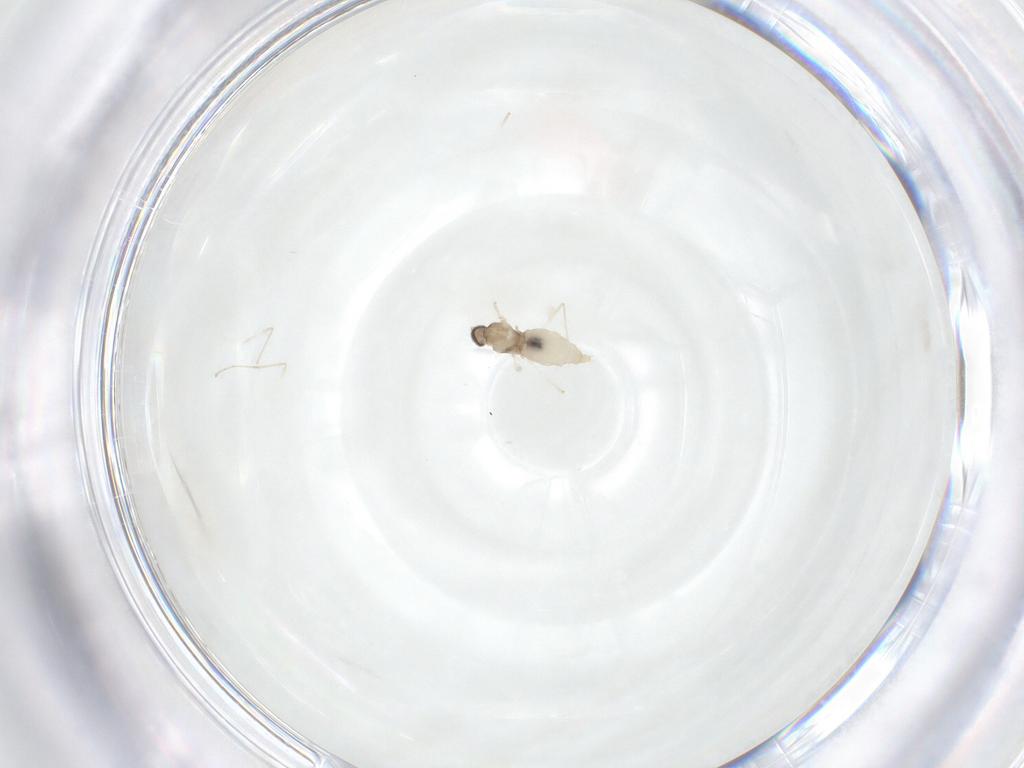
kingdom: Animalia
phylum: Arthropoda
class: Insecta
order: Diptera
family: Cecidomyiidae
